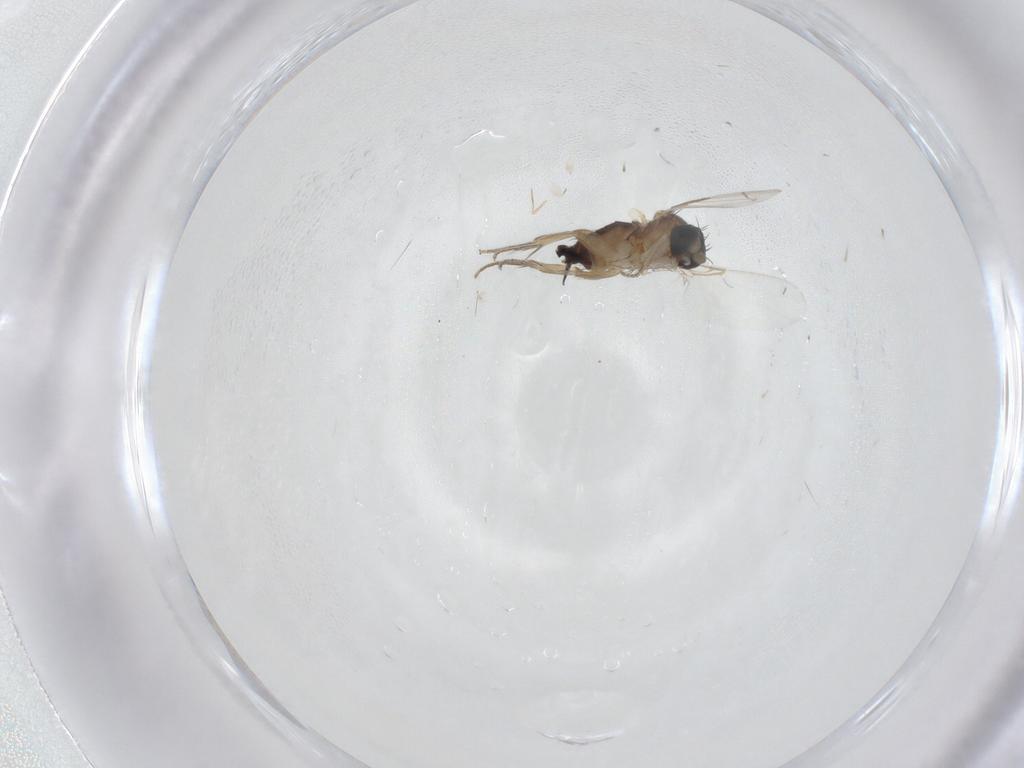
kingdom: Animalia
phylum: Arthropoda
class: Insecta
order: Diptera
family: Phoridae
